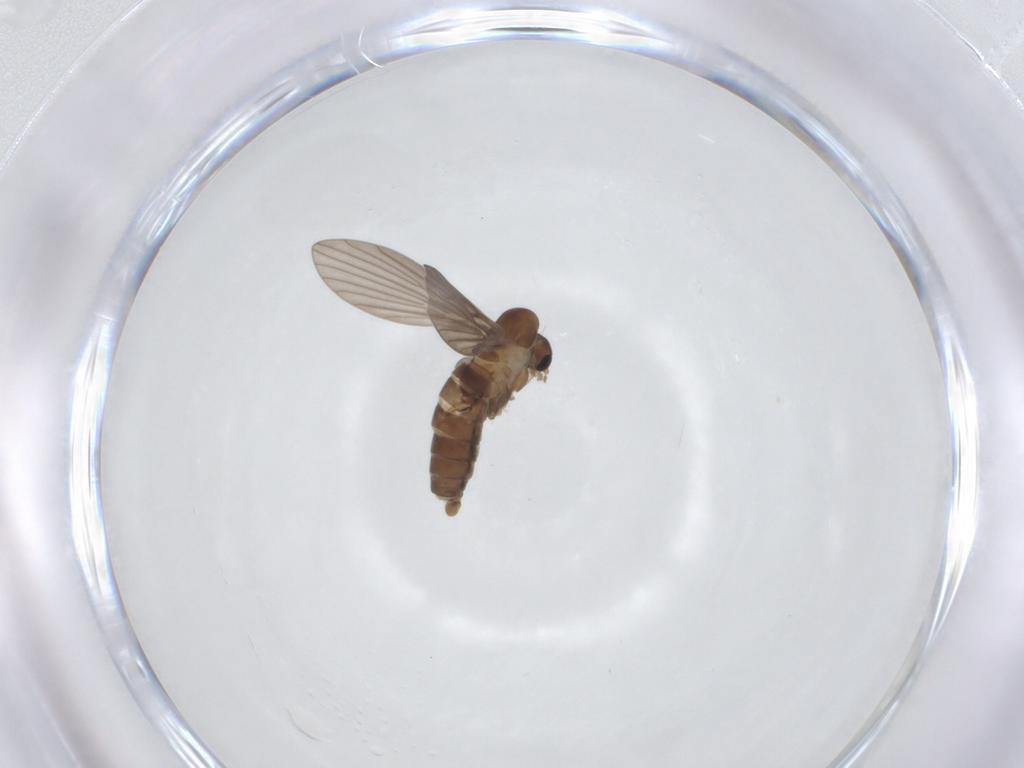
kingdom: Animalia
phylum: Arthropoda
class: Insecta
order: Diptera
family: Psychodidae
